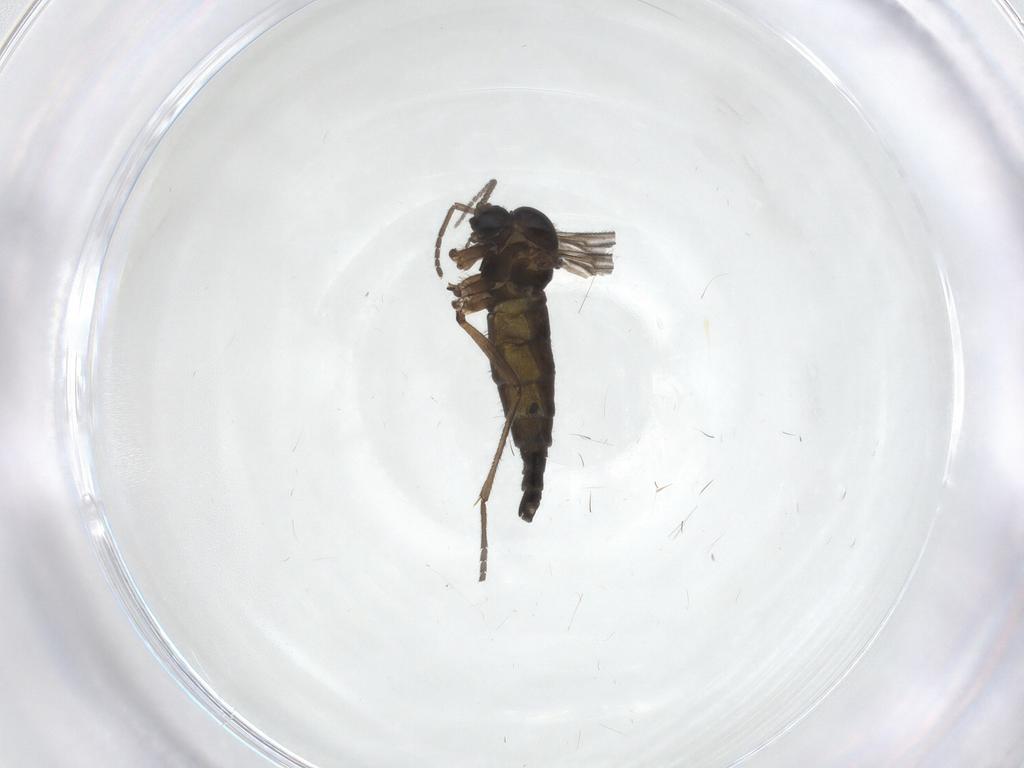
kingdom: Animalia
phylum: Arthropoda
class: Insecta
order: Diptera
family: Sciaridae
